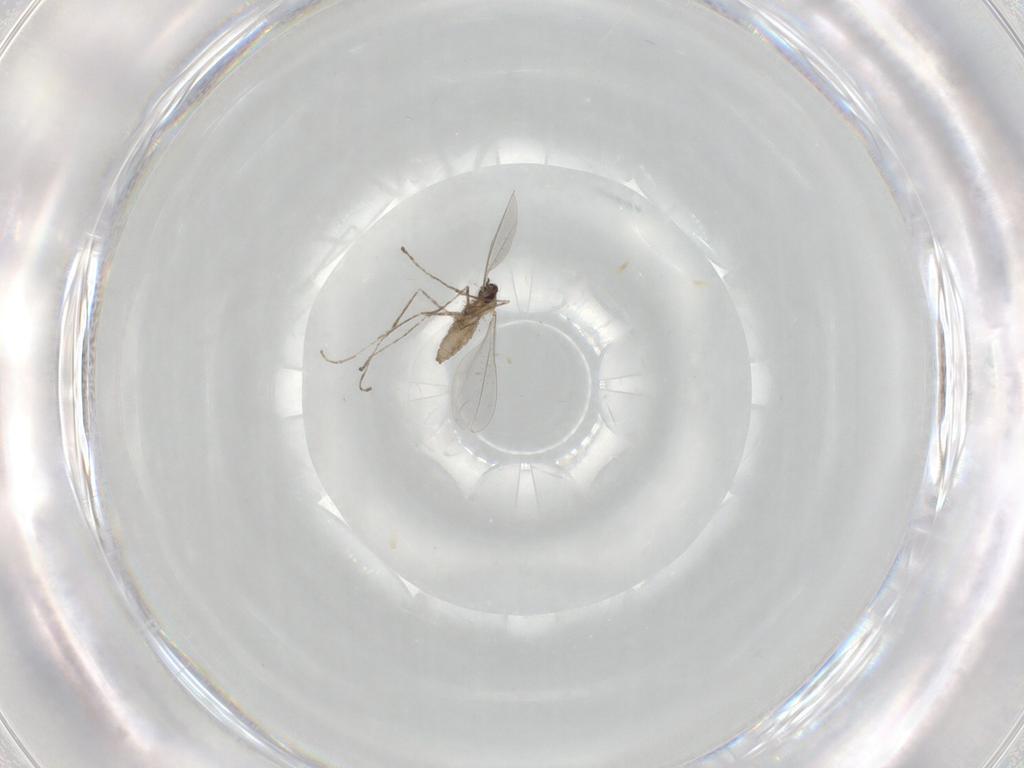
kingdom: Animalia
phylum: Arthropoda
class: Insecta
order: Diptera
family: Cecidomyiidae
